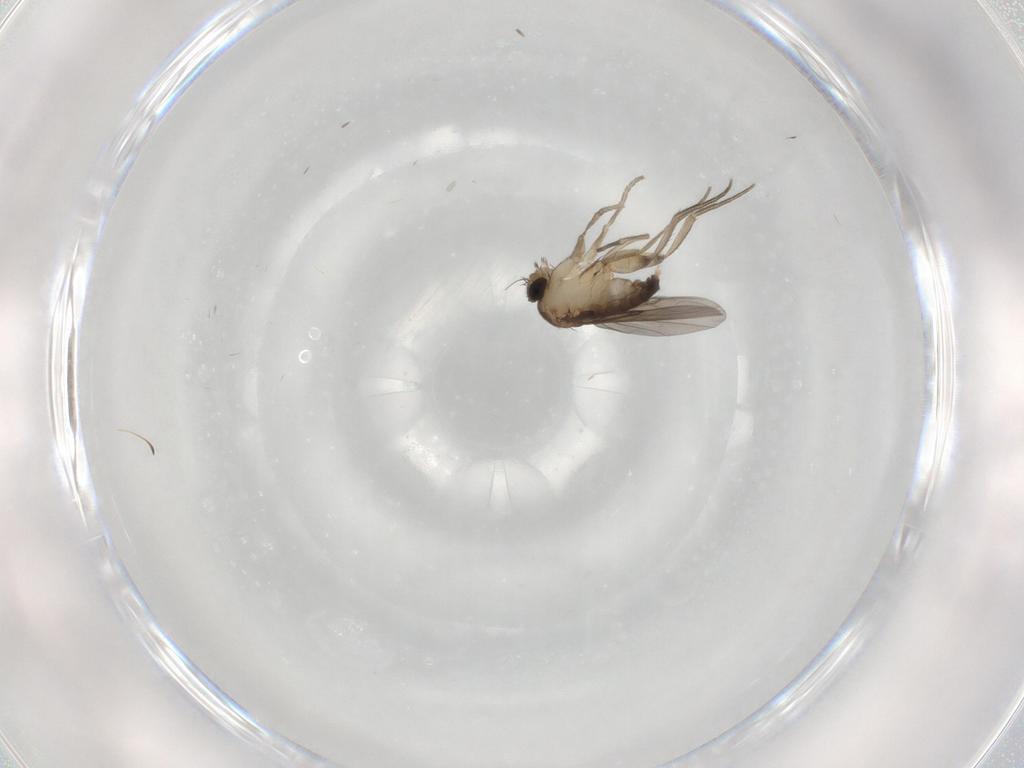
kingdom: Animalia
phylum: Arthropoda
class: Insecta
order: Diptera
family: Phoridae
